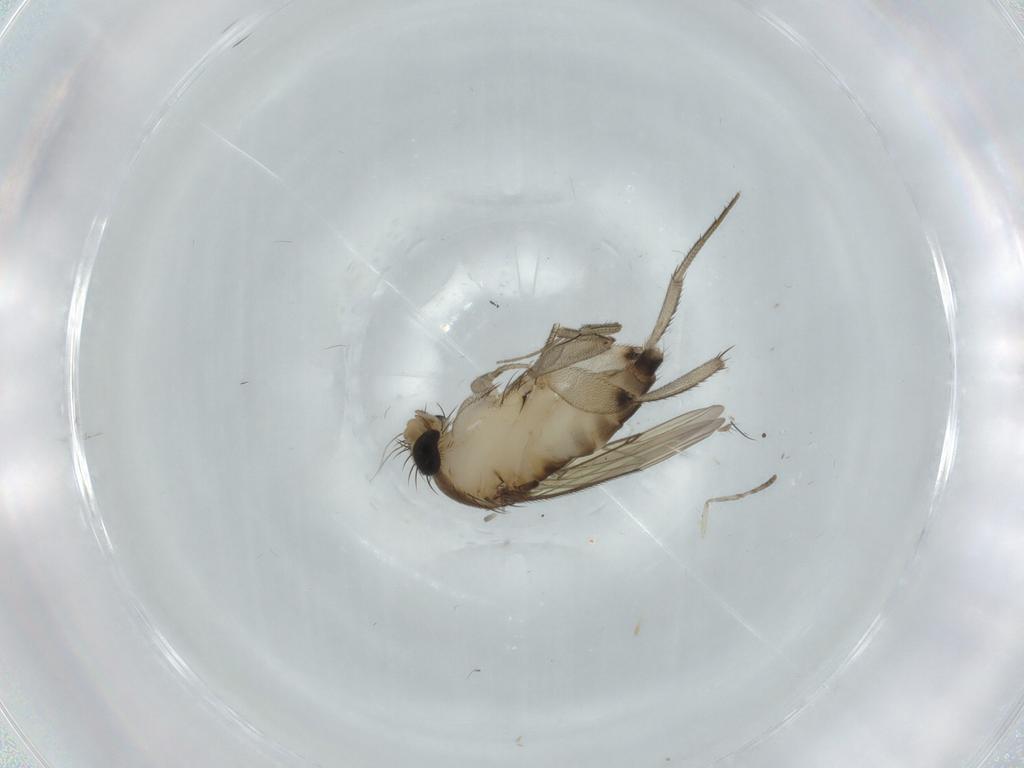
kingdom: Animalia
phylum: Arthropoda
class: Insecta
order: Diptera
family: Phoridae
